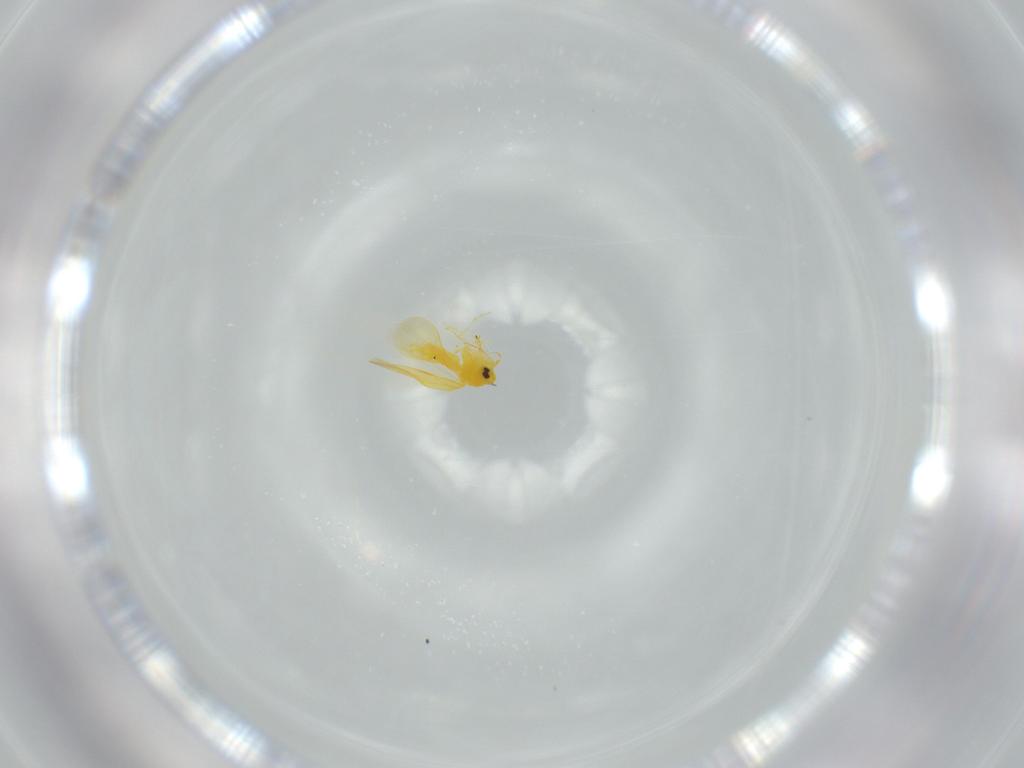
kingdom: Animalia
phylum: Arthropoda
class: Insecta
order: Hemiptera
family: Aleyrodidae
